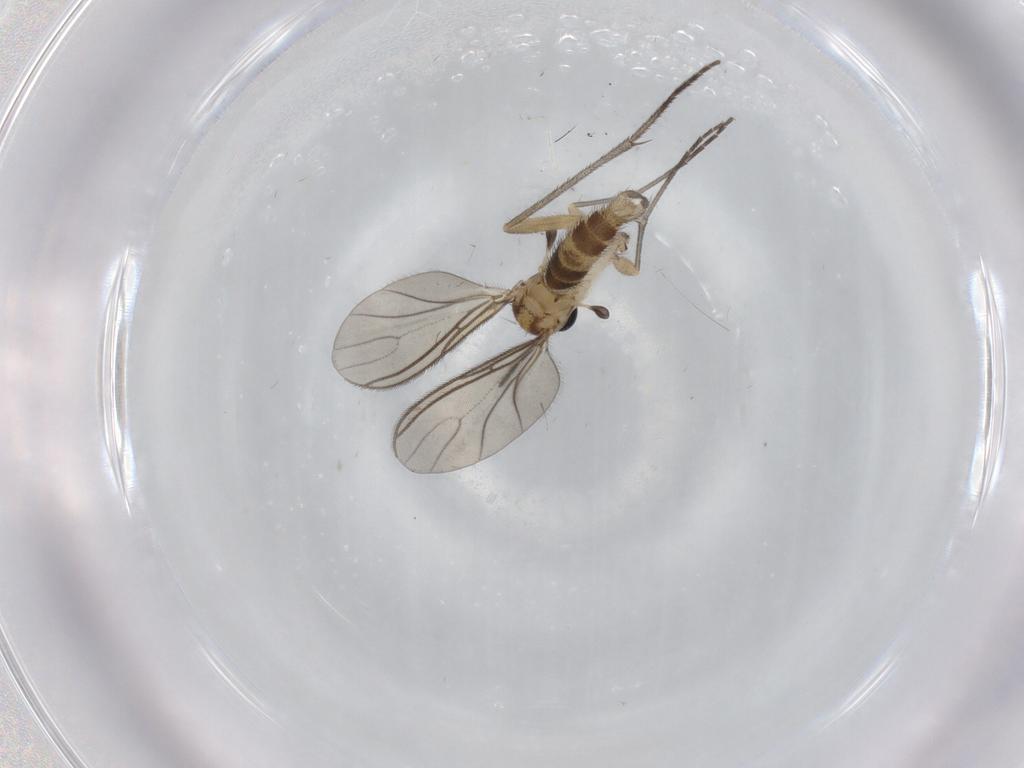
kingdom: Animalia
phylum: Arthropoda
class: Insecta
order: Diptera
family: Sciaridae
